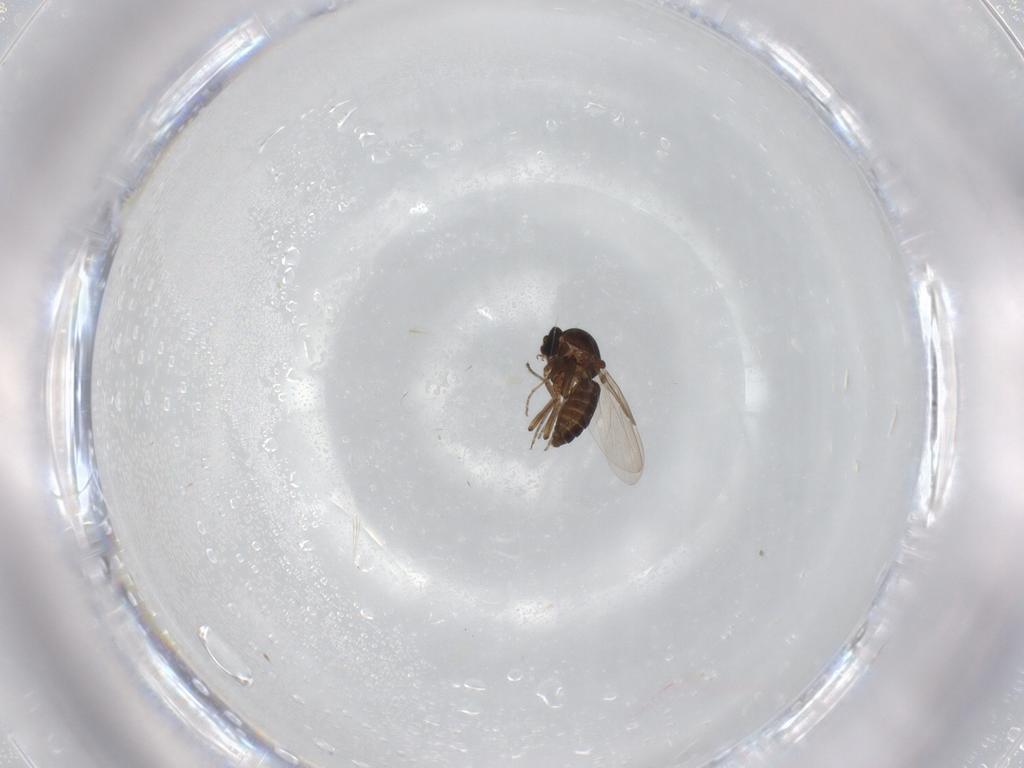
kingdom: Animalia
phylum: Arthropoda
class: Insecta
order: Diptera
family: Ceratopogonidae
